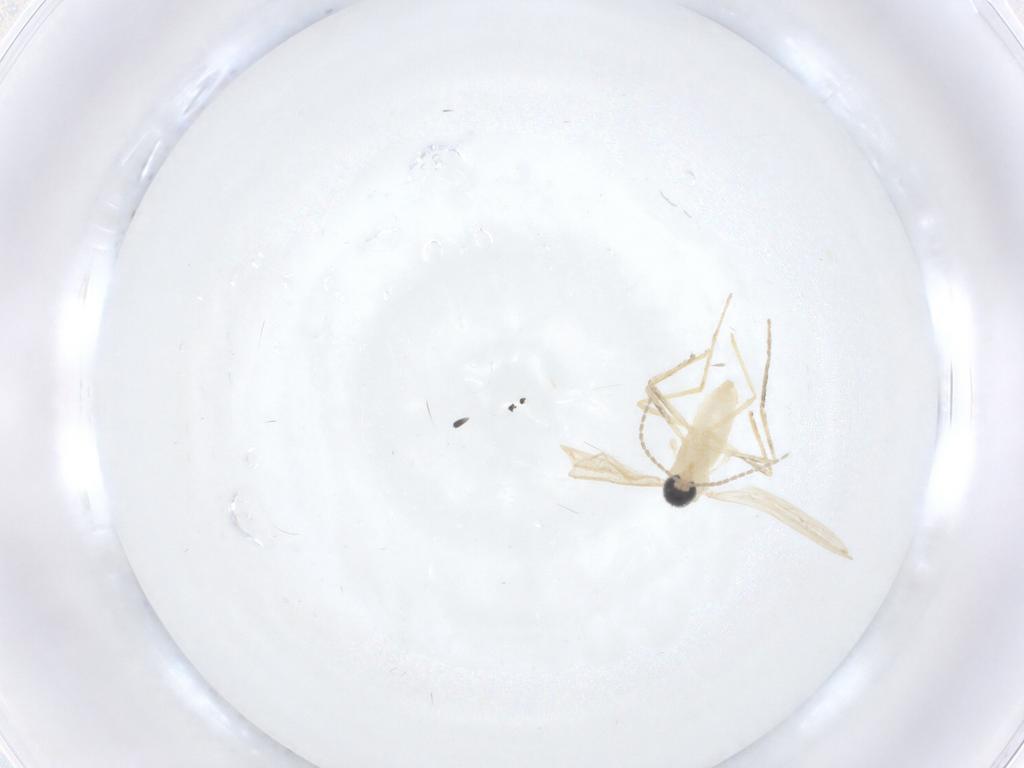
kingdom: Animalia
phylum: Arthropoda
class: Insecta
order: Diptera
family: Cecidomyiidae
